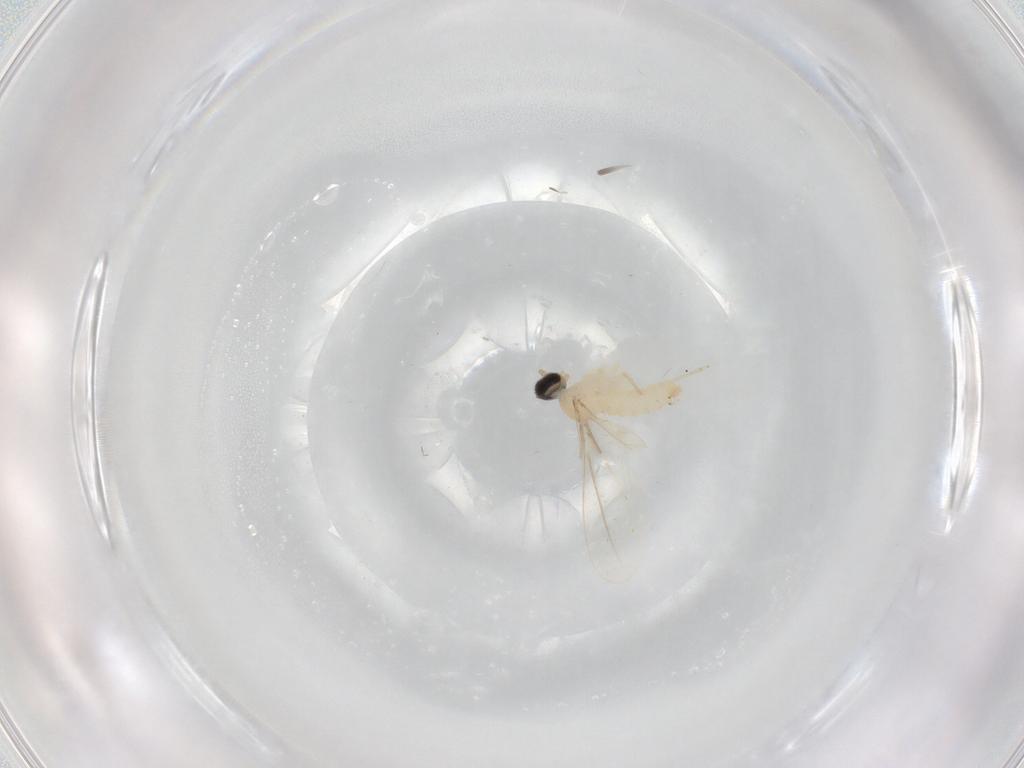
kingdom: Animalia
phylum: Arthropoda
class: Insecta
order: Diptera
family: Cecidomyiidae
